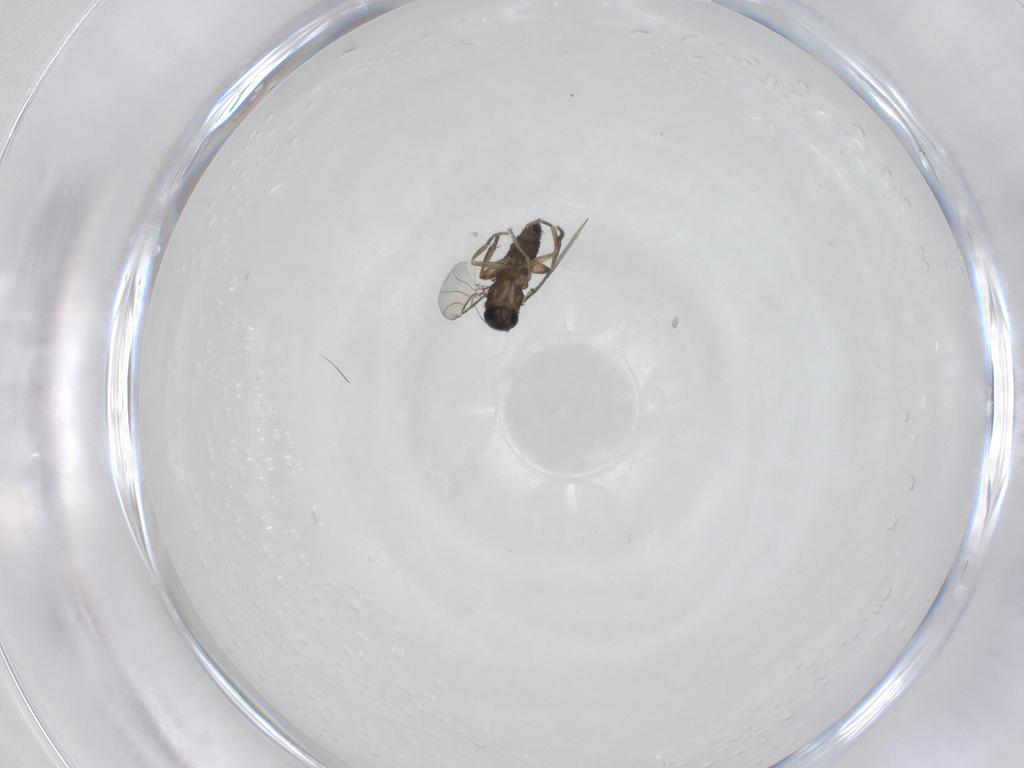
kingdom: Animalia
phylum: Arthropoda
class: Insecta
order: Diptera
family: Phoridae
